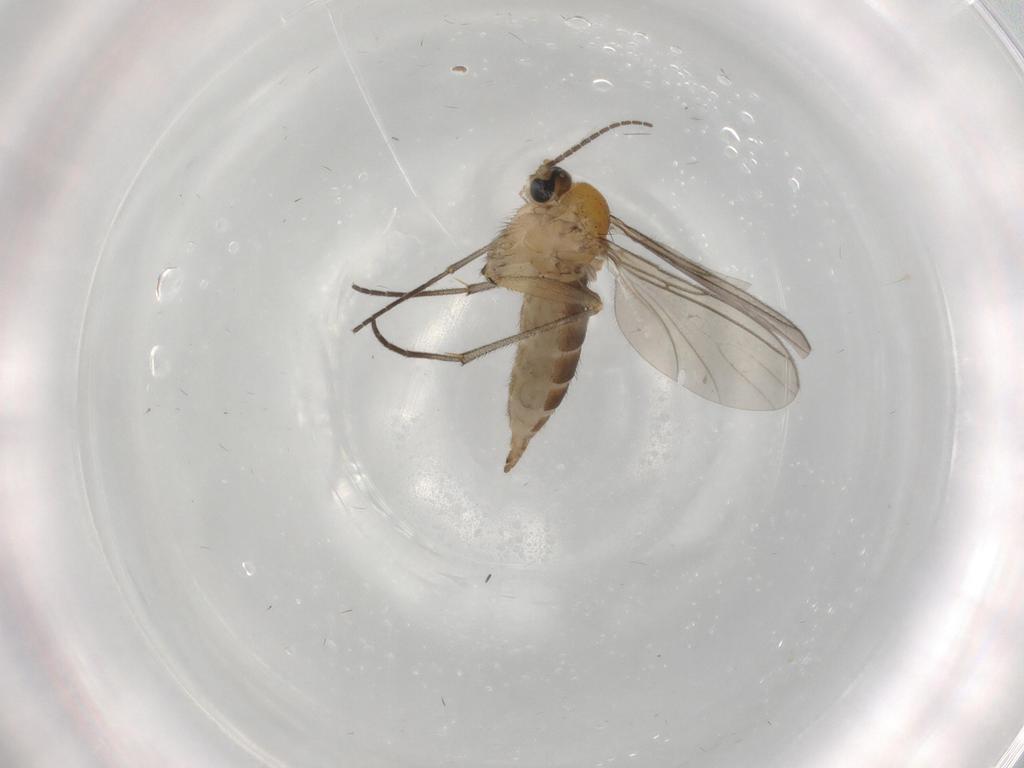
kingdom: Animalia
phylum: Arthropoda
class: Insecta
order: Diptera
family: Sciaridae
